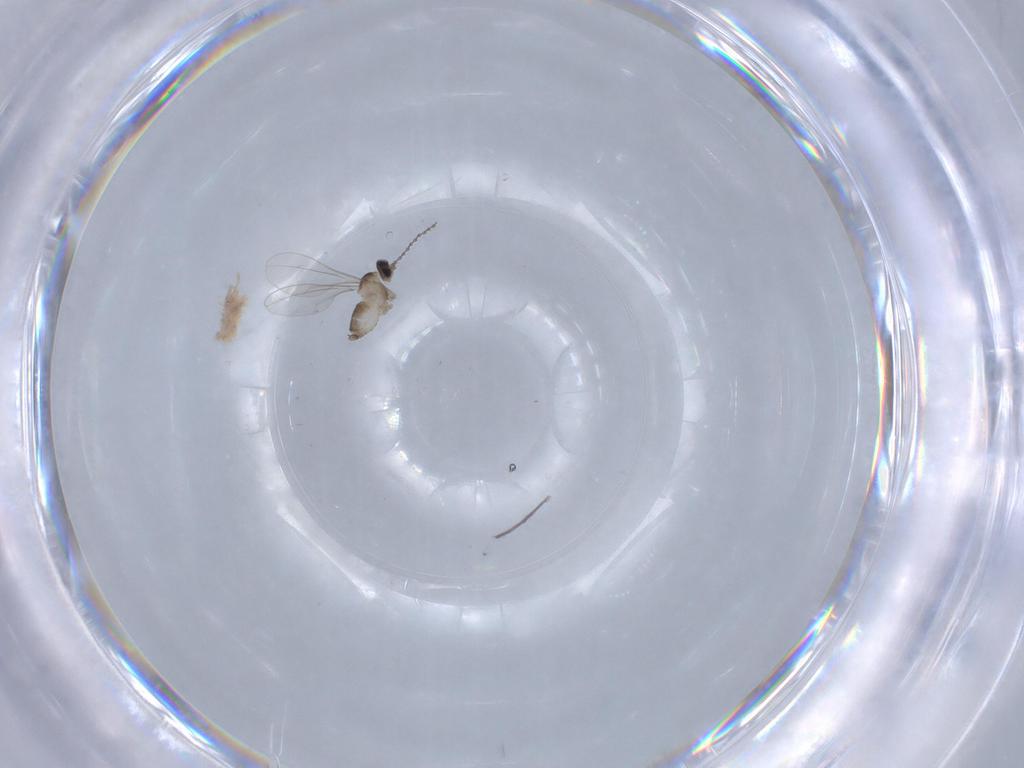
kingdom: Animalia
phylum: Arthropoda
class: Insecta
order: Diptera
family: Cecidomyiidae
